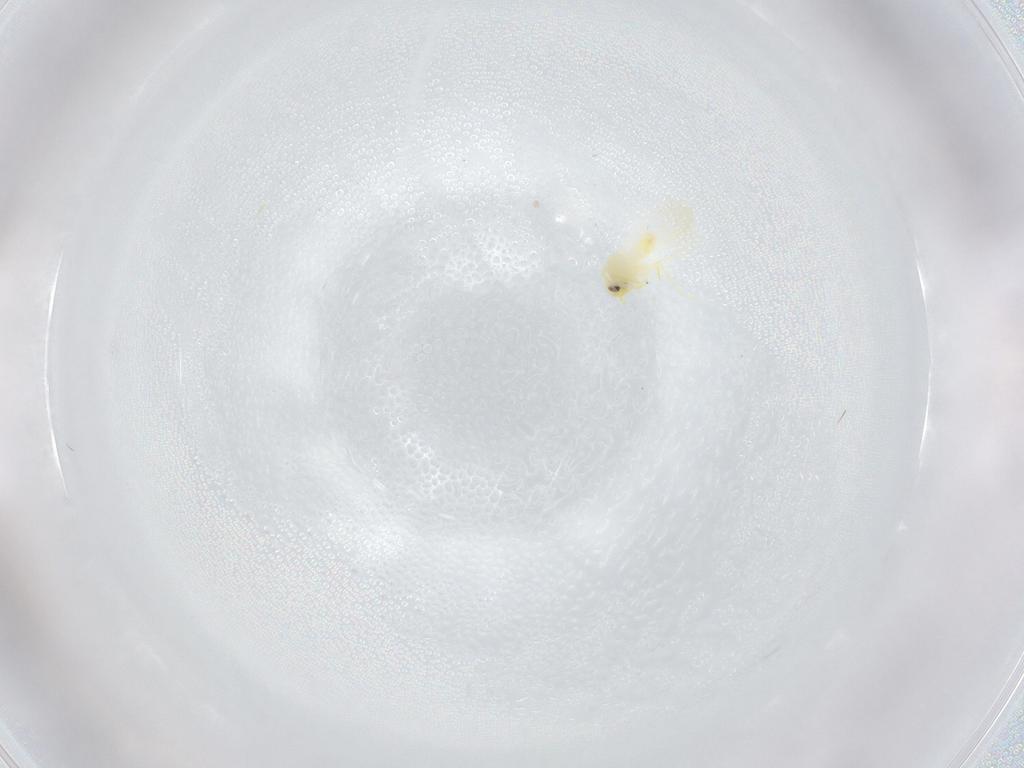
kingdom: Animalia
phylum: Arthropoda
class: Insecta
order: Hemiptera
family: Aleyrodidae
